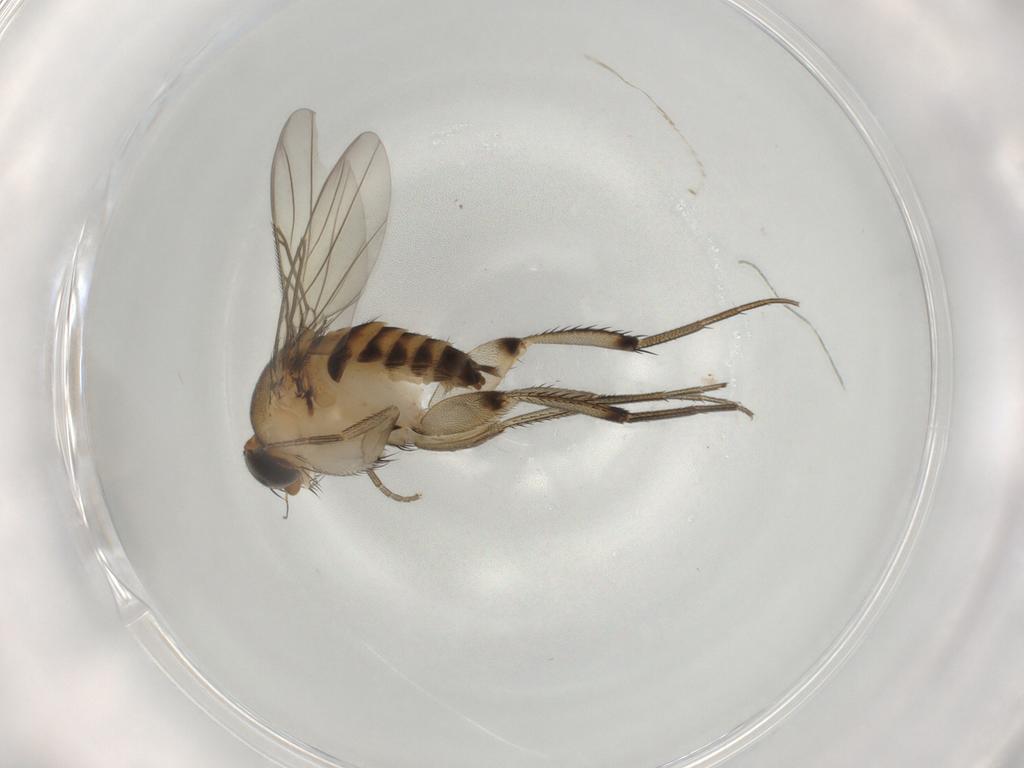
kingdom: Animalia
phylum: Arthropoda
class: Insecta
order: Diptera
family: Phoridae
